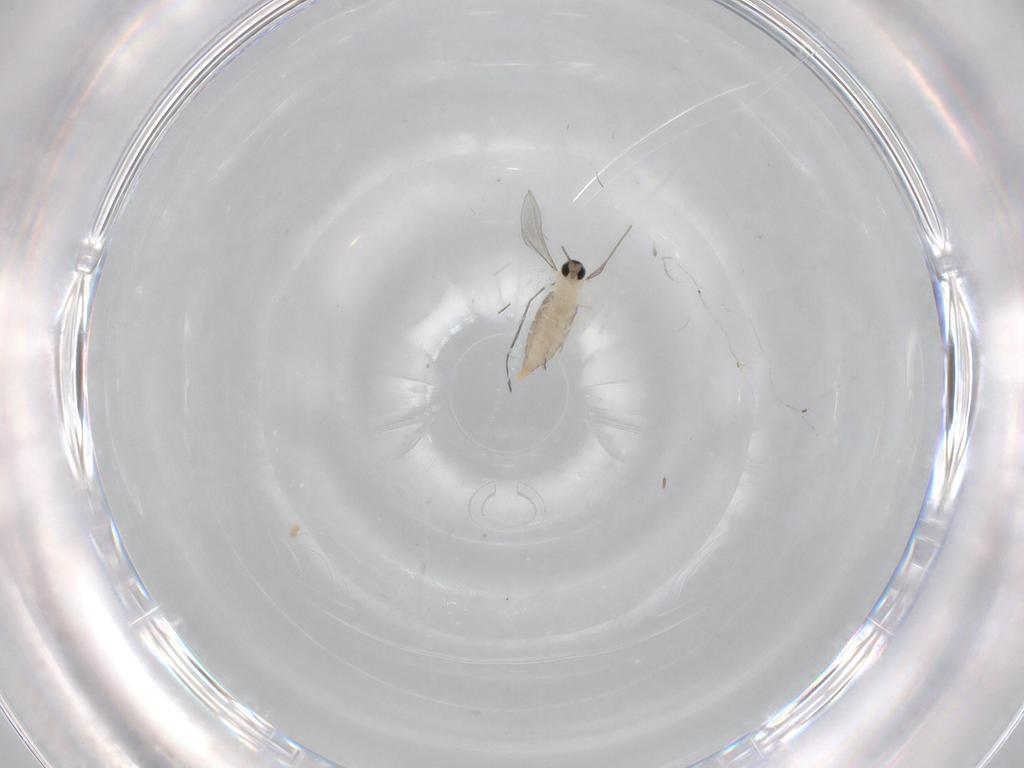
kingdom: Animalia
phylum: Arthropoda
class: Insecta
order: Diptera
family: Cecidomyiidae
